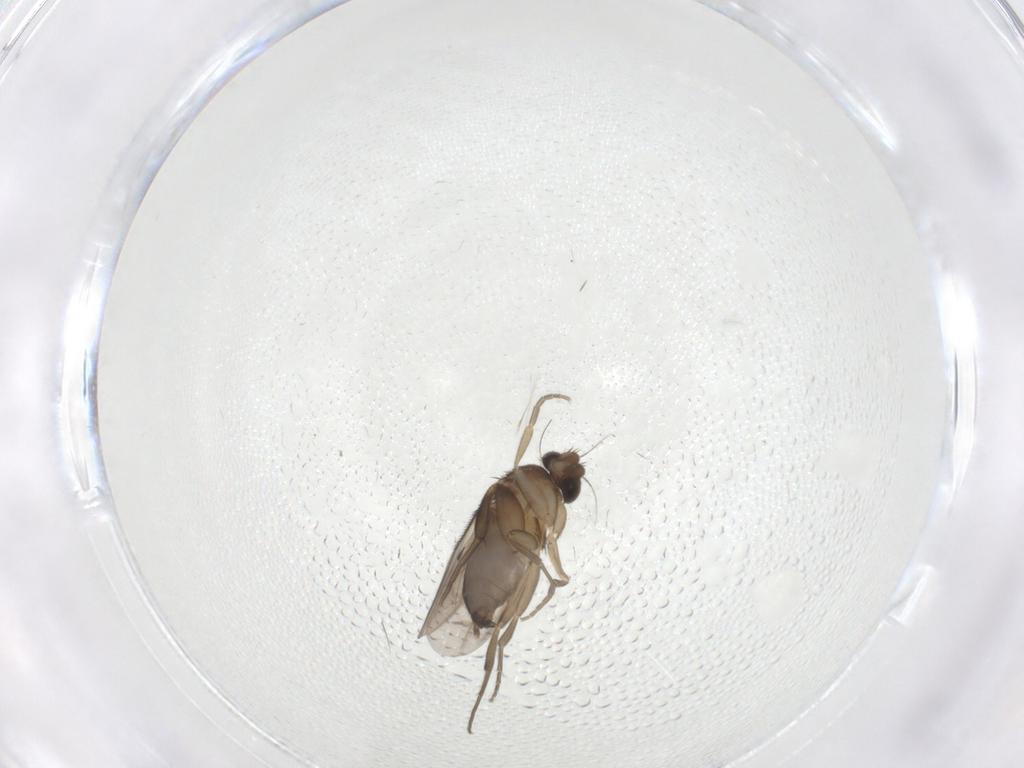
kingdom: Animalia
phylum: Arthropoda
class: Insecta
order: Diptera
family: Phoridae
